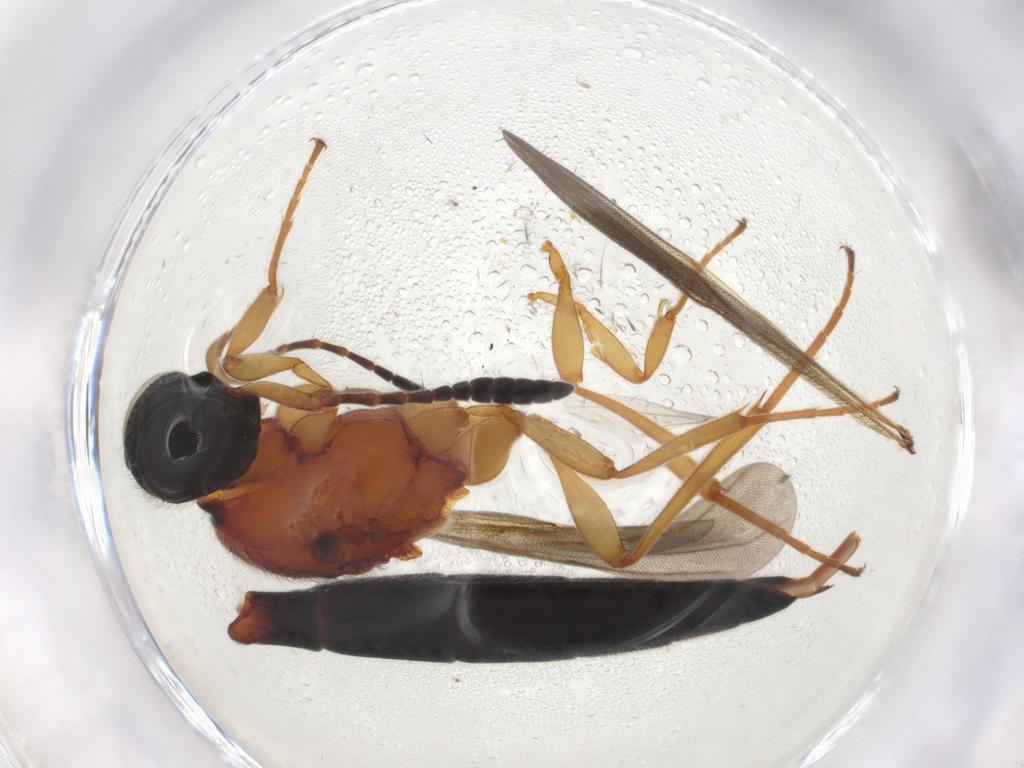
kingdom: Animalia
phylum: Arthropoda
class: Insecta
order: Hymenoptera
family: Scelionidae
